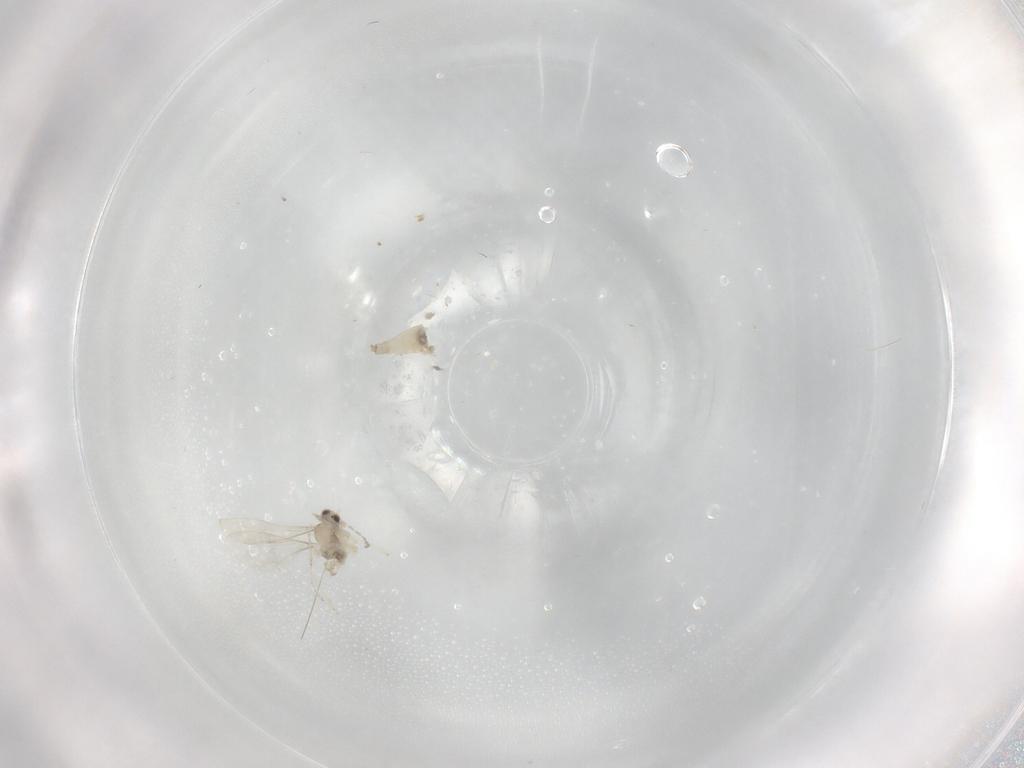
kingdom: Animalia
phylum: Arthropoda
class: Insecta
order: Diptera
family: Cecidomyiidae
